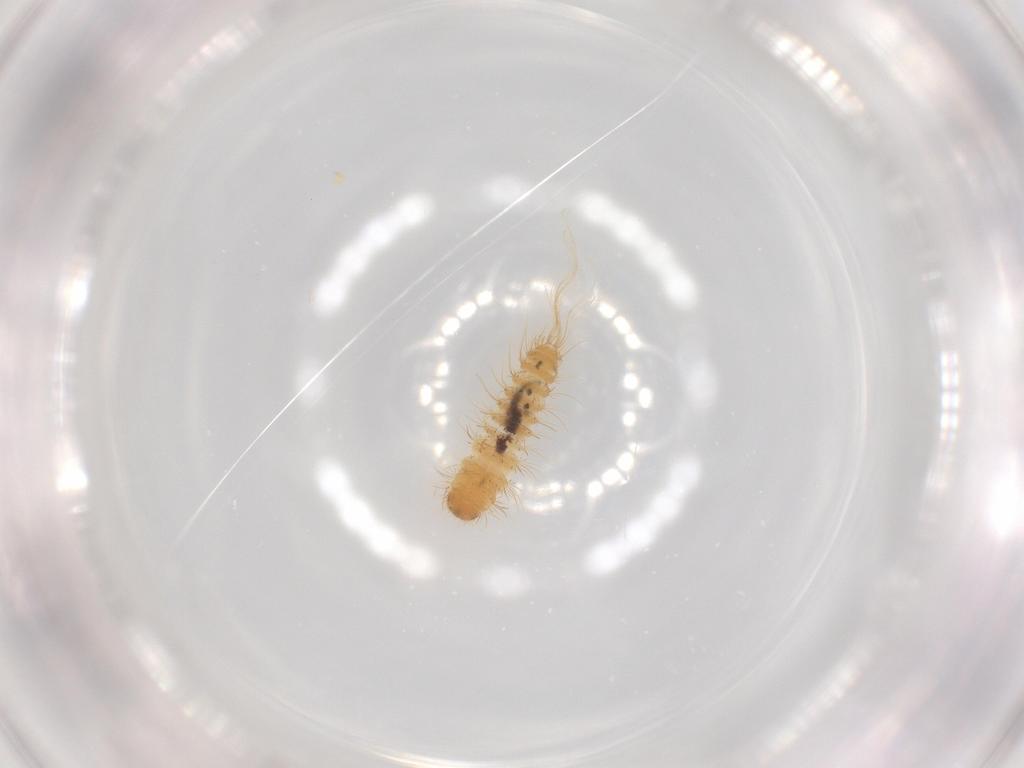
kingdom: Animalia
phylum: Arthropoda
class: Insecta
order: Coleoptera
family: Dermestidae
